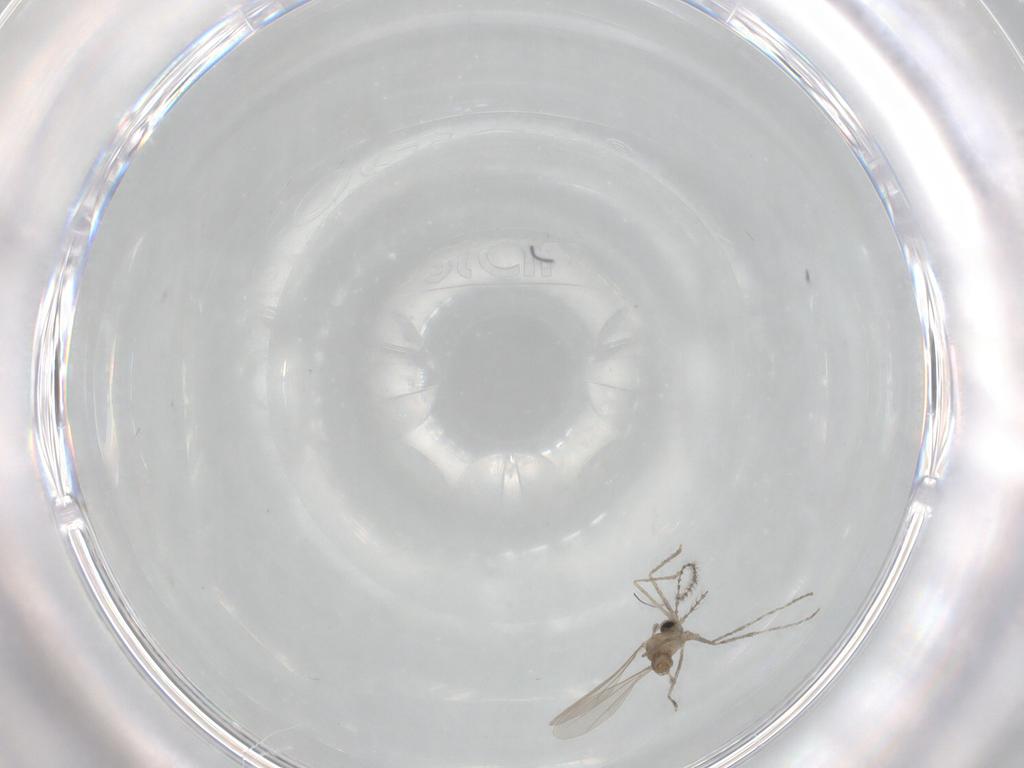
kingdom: Animalia
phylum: Arthropoda
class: Insecta
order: Diptera
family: Cecidomyiidae
